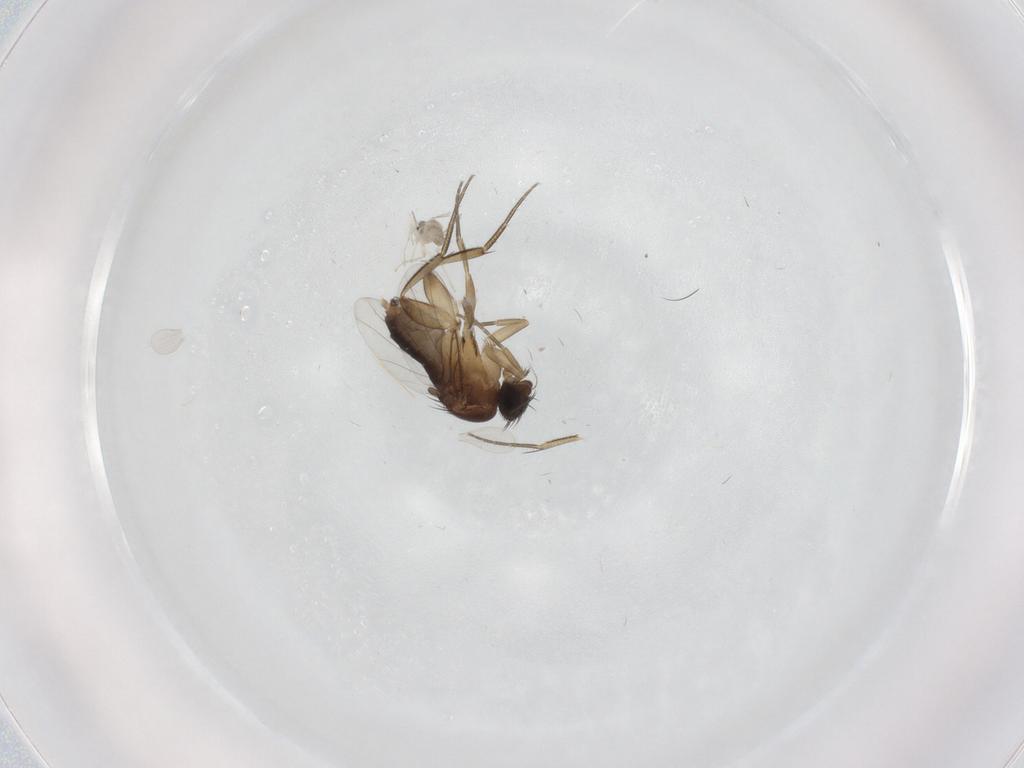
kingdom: Animalia
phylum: Arthropoda
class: Insecta
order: Diptera
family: Phoridae
